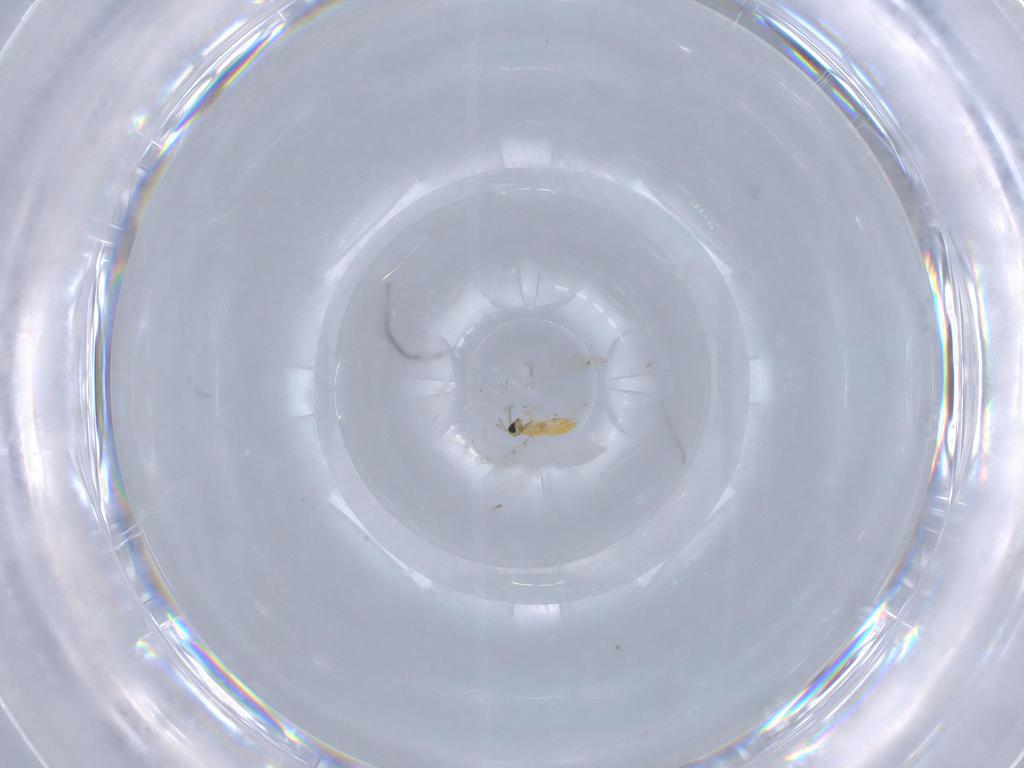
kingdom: Animalia
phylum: Arthropoda
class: Insecta
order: Hymenoptera
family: Trichogrammatidae
